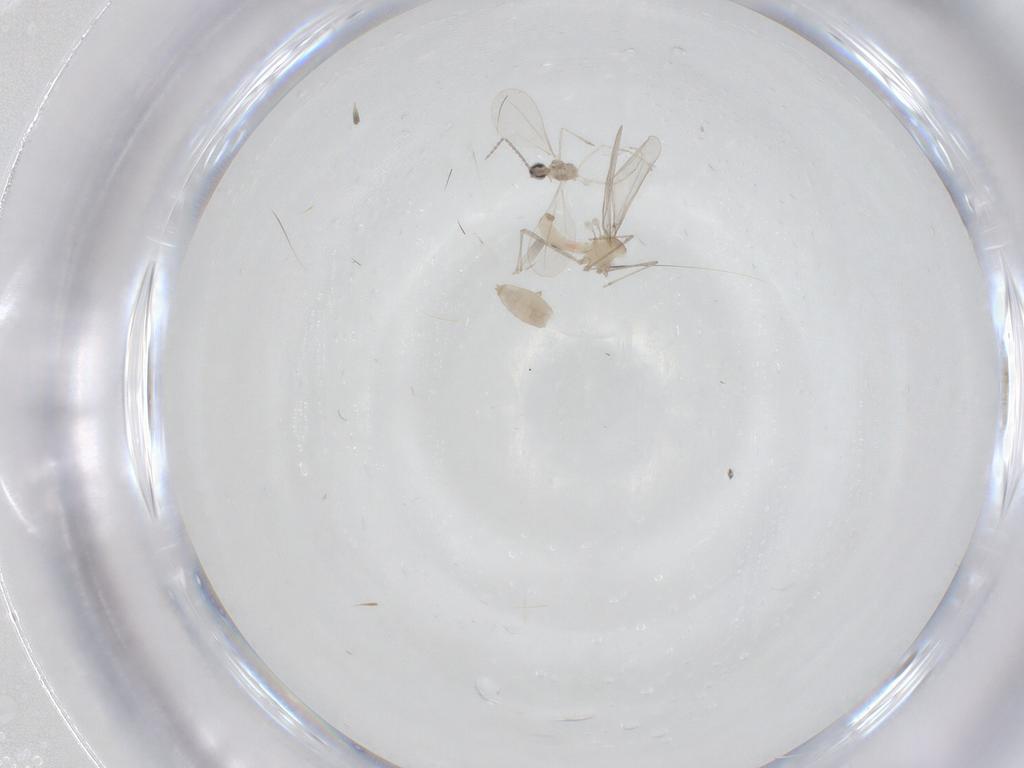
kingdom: Animalia
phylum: Arthropoda
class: Insecta
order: Diptera
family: Cecidomyiidae
